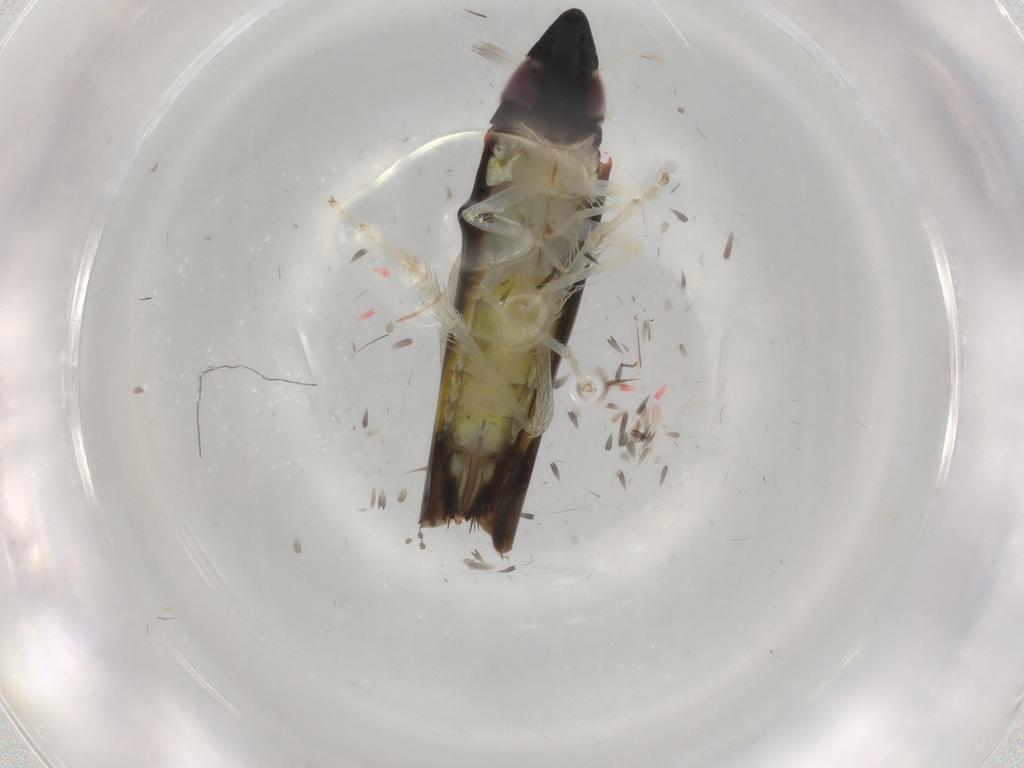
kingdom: Animalia
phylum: Arthropoda
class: Insecta
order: Hemiptera
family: Cicadellidae
